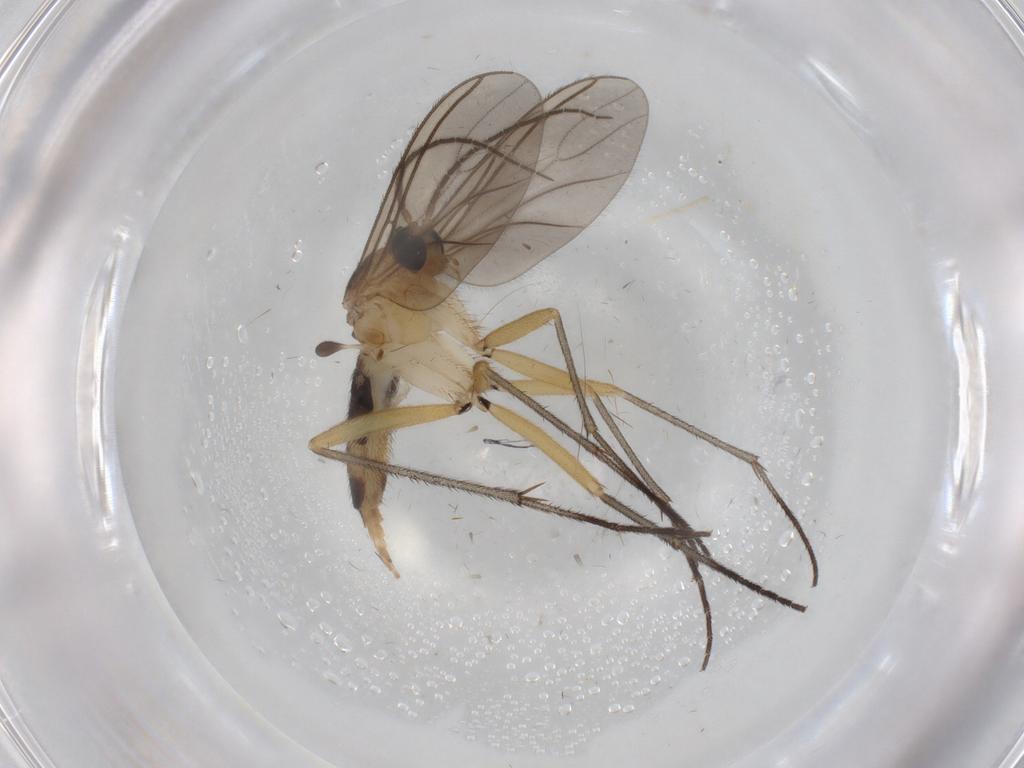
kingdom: Animalia
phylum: Arthropoda
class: Insecta
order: Diptera
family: Sciaridae
